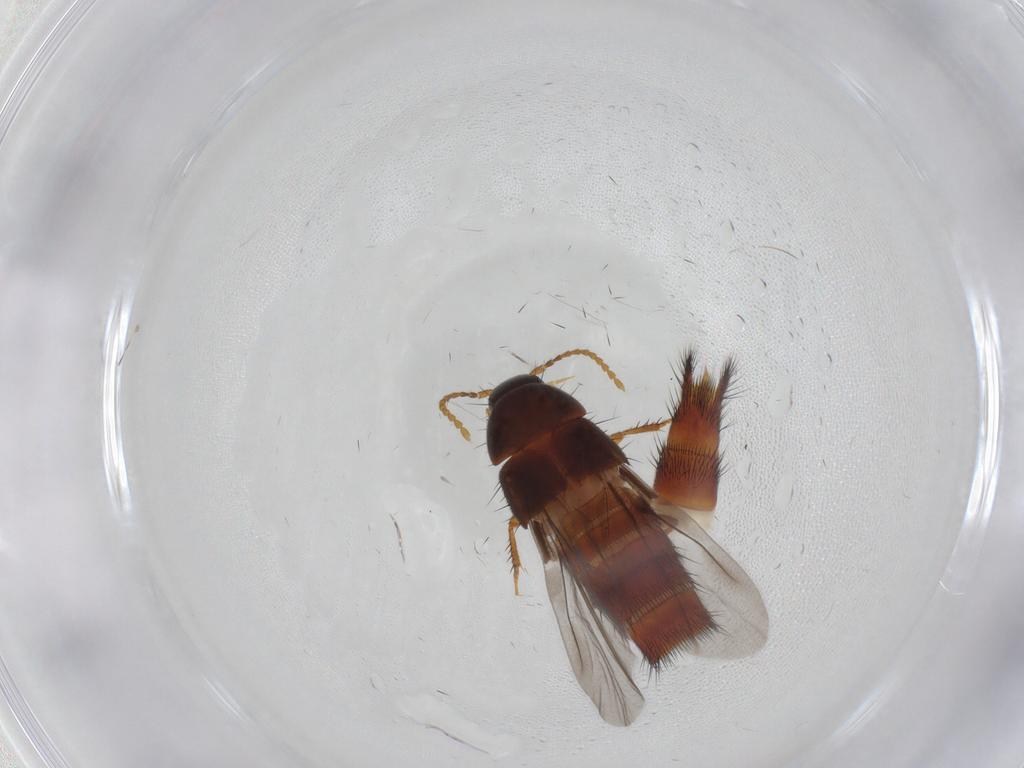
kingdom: Animalia
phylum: Arthropoda
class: Insecta
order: Coleoptera
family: Staphylinidae
